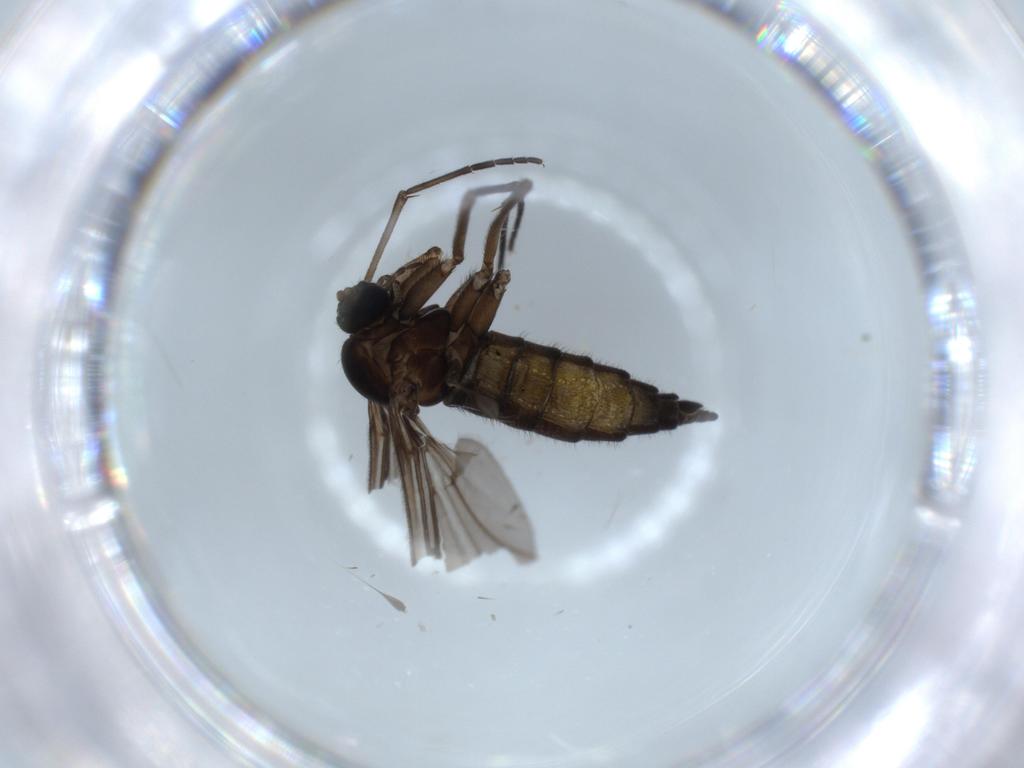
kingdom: Animalia
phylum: Arthropoda
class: Insecta
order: Diptera
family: Sciaridae
